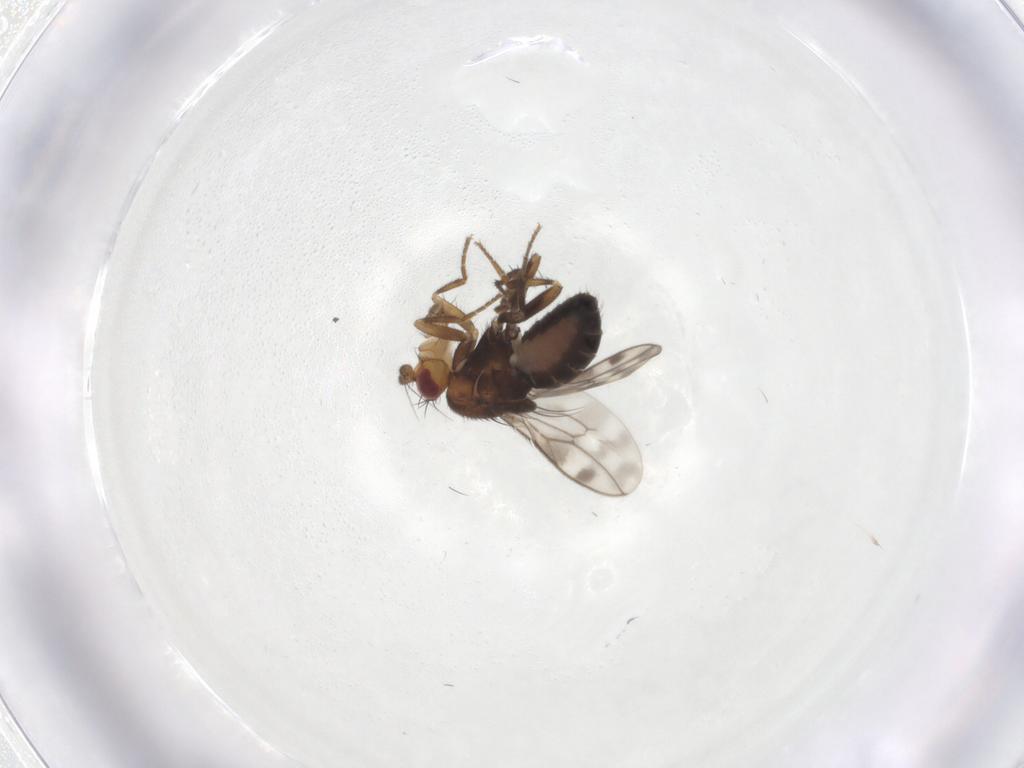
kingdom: Animalia
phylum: Arthropoda
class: Insecta
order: Diptera
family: Sphaeroceridae
